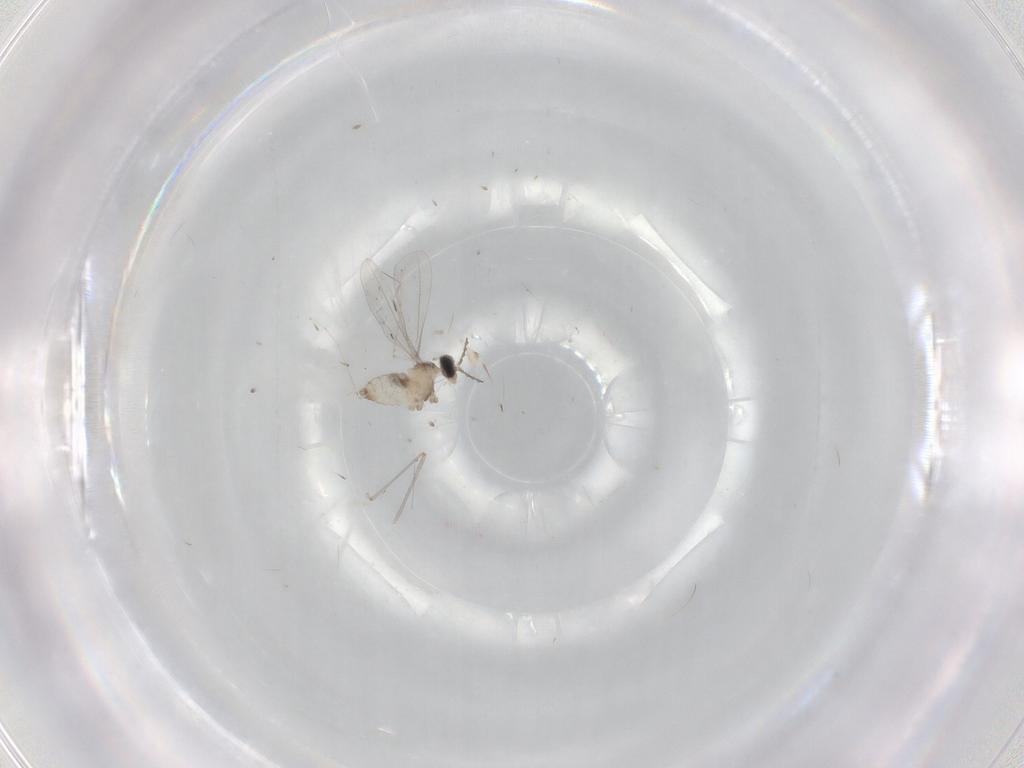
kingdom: Animalia
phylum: Arthropoda
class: Insecta
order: Diptera
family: Cecidomyiidae
